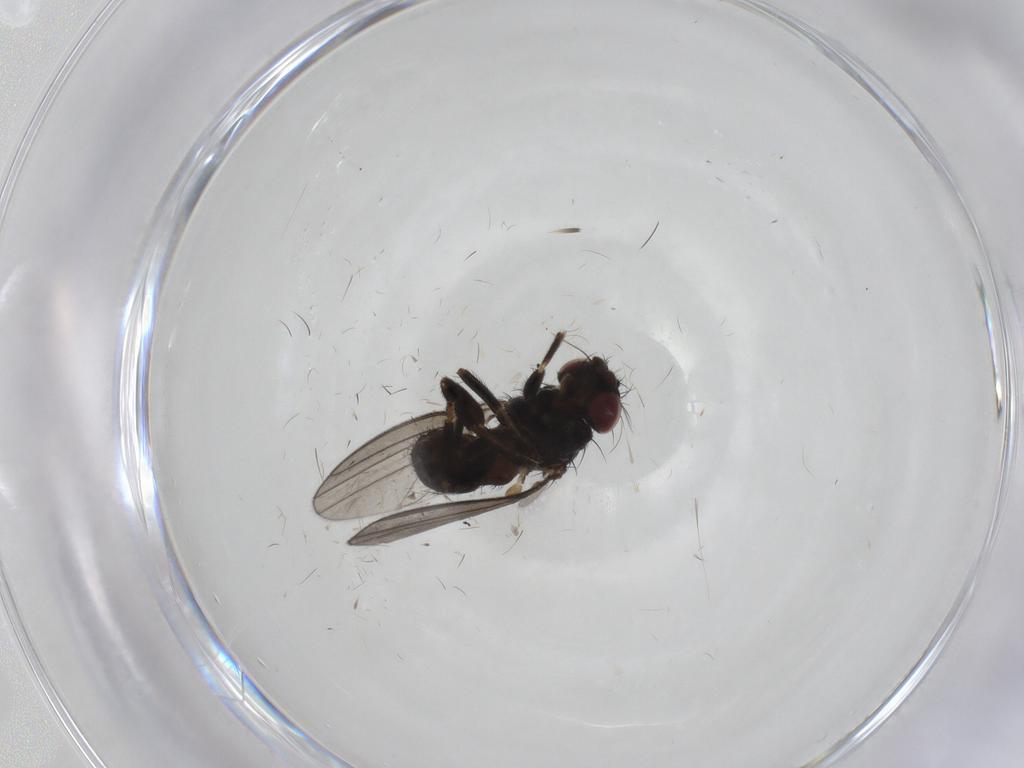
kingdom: Animalia
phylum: Arthropoda
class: Insecta
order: Diptera
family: Milichiidae
